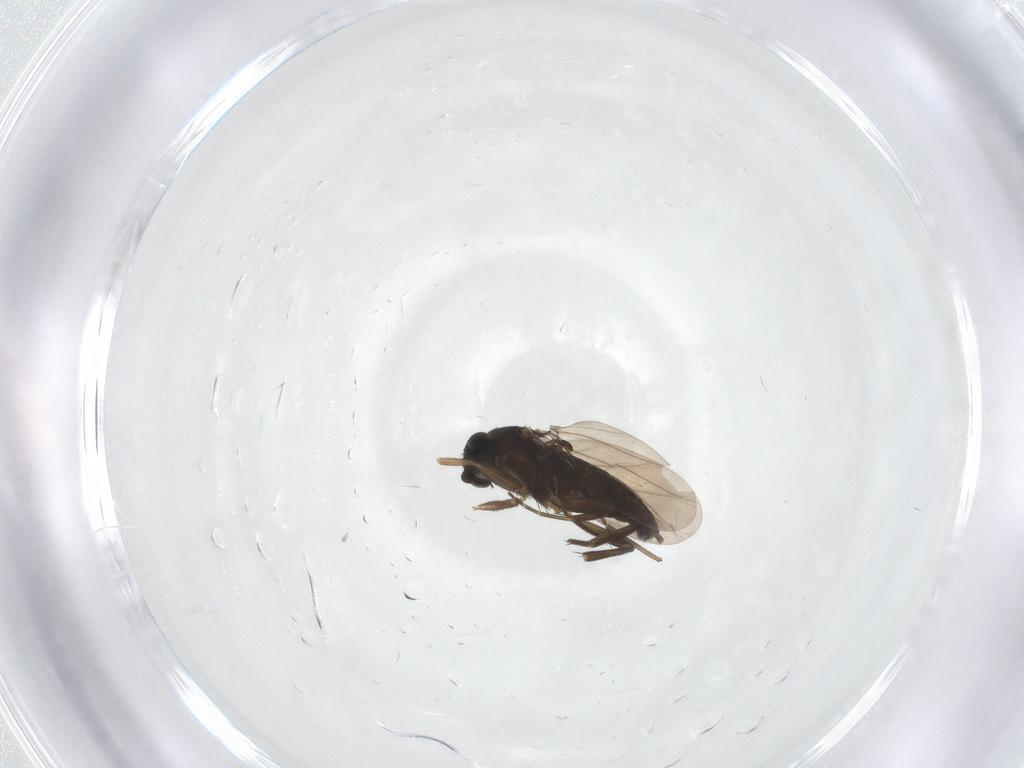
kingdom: Animalia
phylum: Arthropoda
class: Insecta
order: Diptera
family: Phoridae
